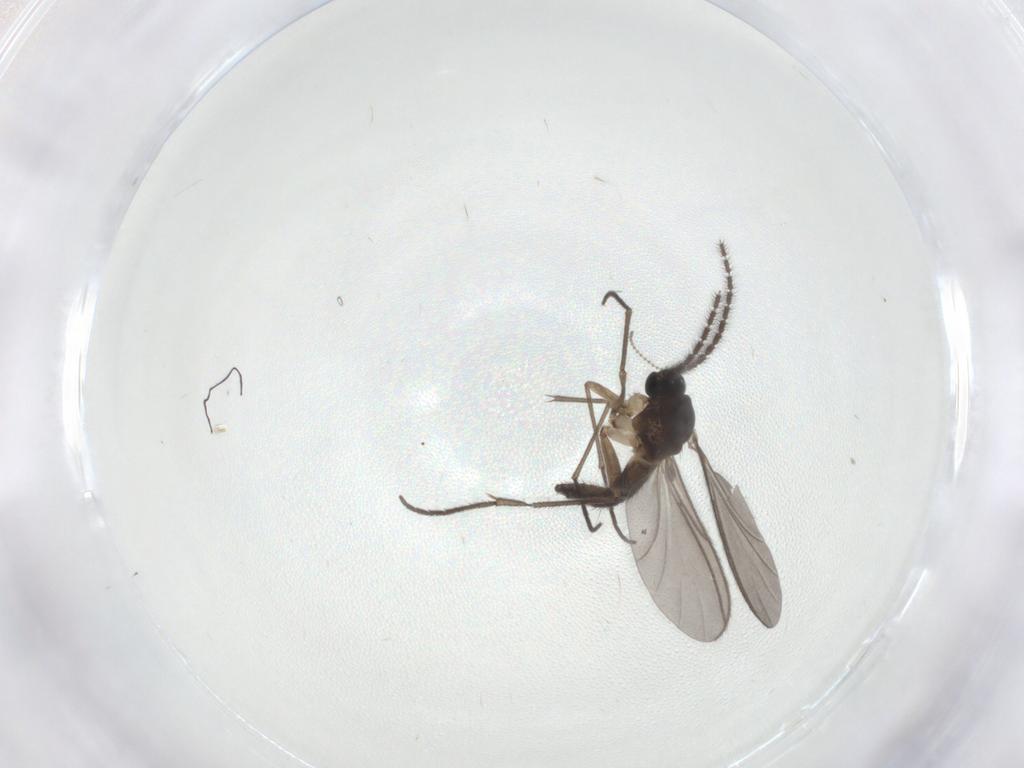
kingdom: Animalia
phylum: Arthropoda
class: Insecta
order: Diptera
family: Sciaridae
